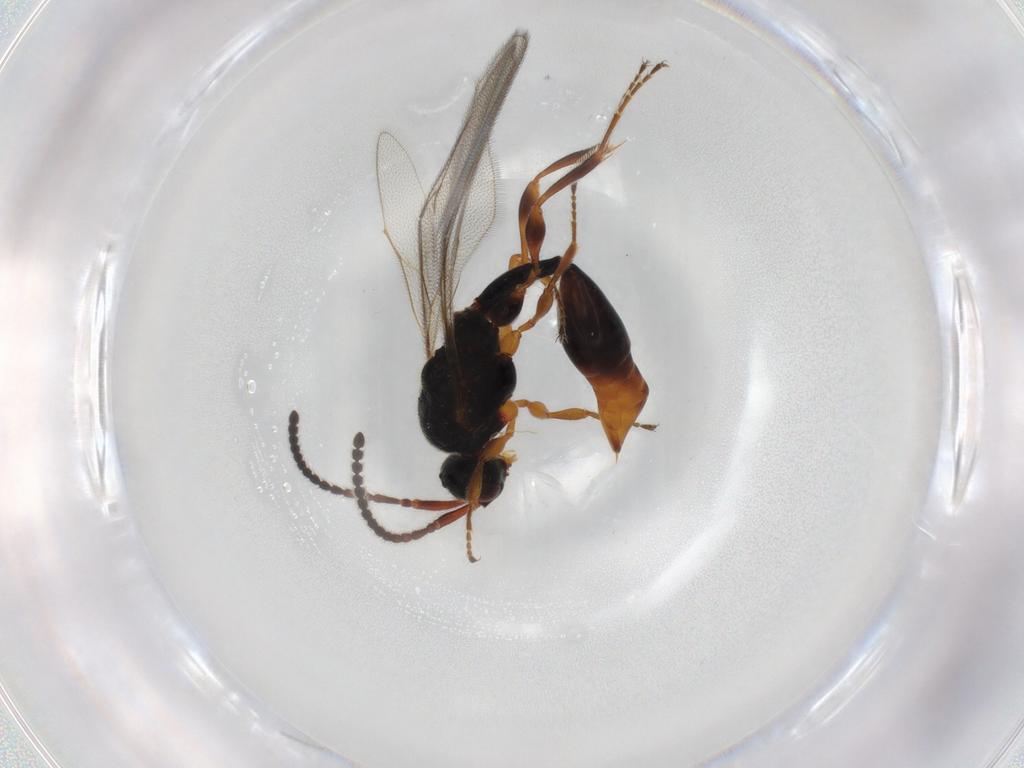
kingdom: Animalia
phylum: Arthropoda
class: Insecta
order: Hymenoptera
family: Diapriidae
